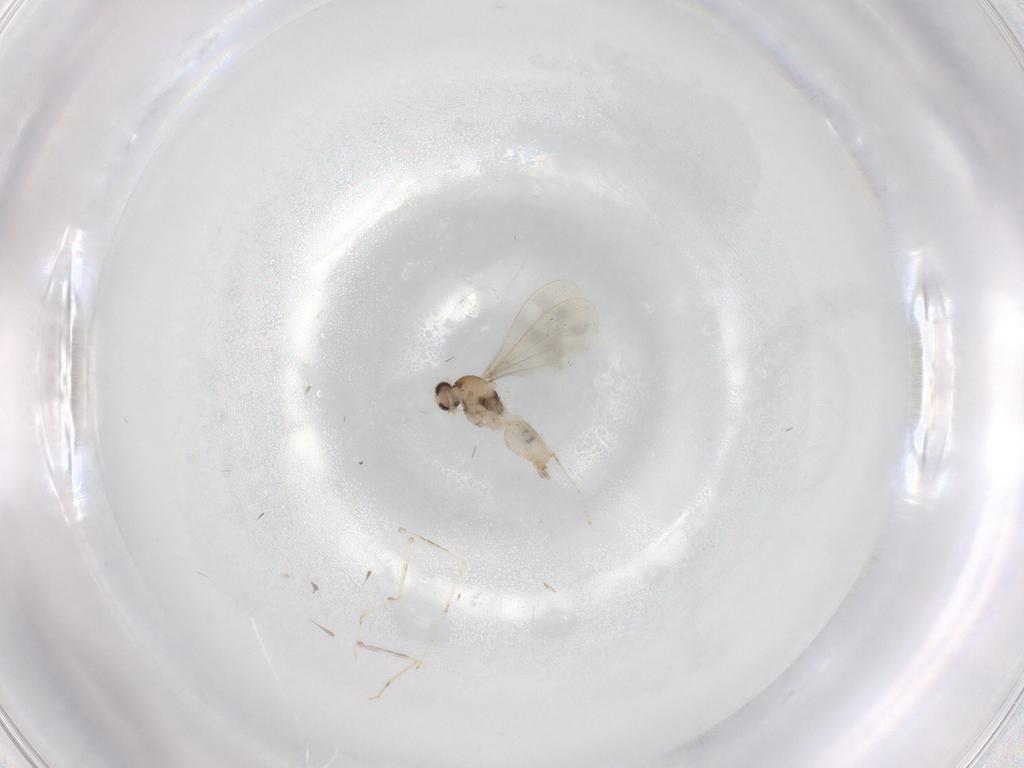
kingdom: Animalia
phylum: Arthropoda
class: Insecta
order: Diptera
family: Cecidomyiidae
